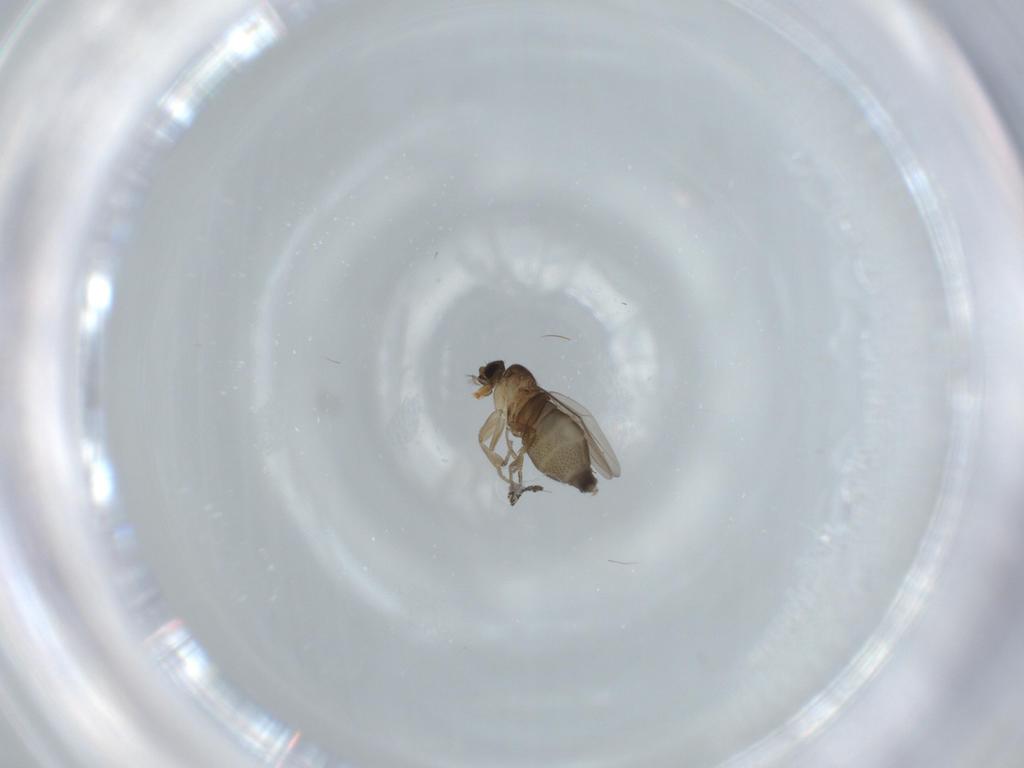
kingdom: Animalia
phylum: Arthropoda
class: Insecta
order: Diptera
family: Phoridae
